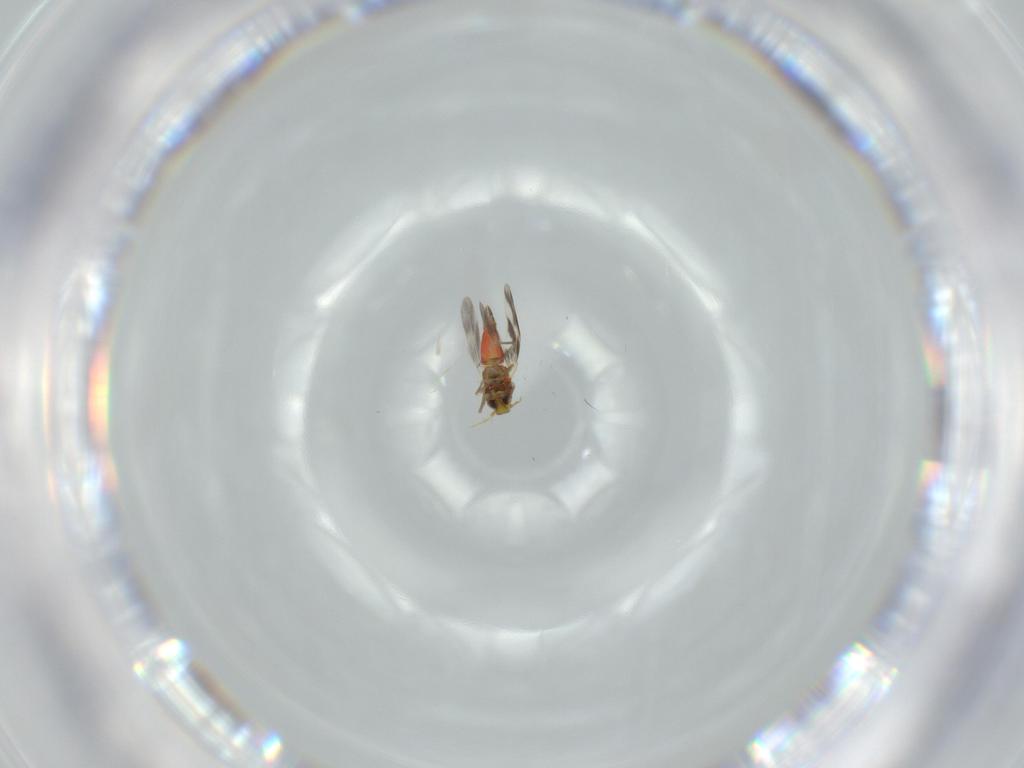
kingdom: Animalia
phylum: Arthropoda
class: Insecta
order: Hemiptera
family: Aleyrodidae
